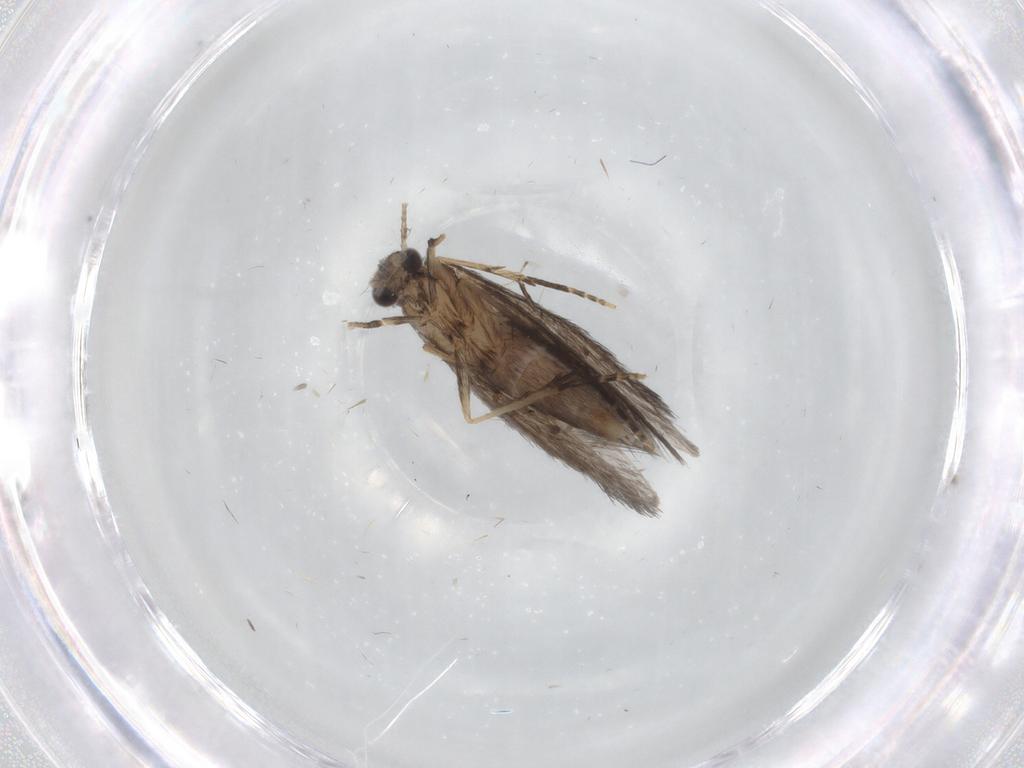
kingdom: Animalia
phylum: Arthropoda
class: Insecta
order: Trichoptera
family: Hydroptilidae
